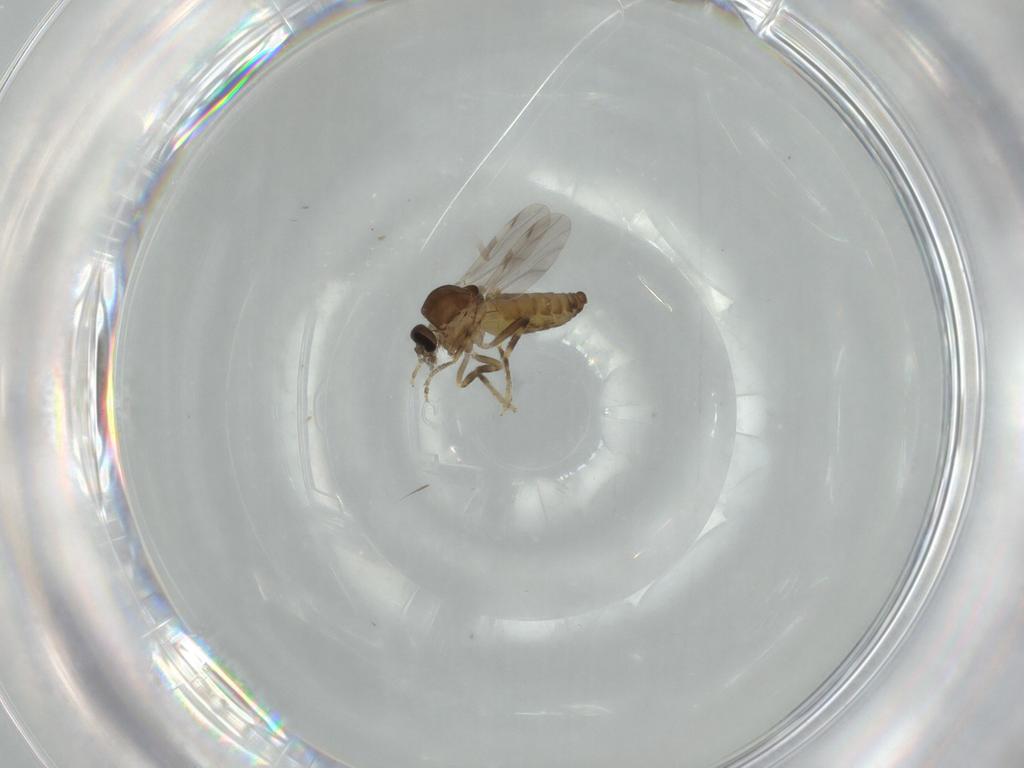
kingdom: Animalia
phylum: Arthropoda
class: Insecta
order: Diptera
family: Ceratopogonidae
